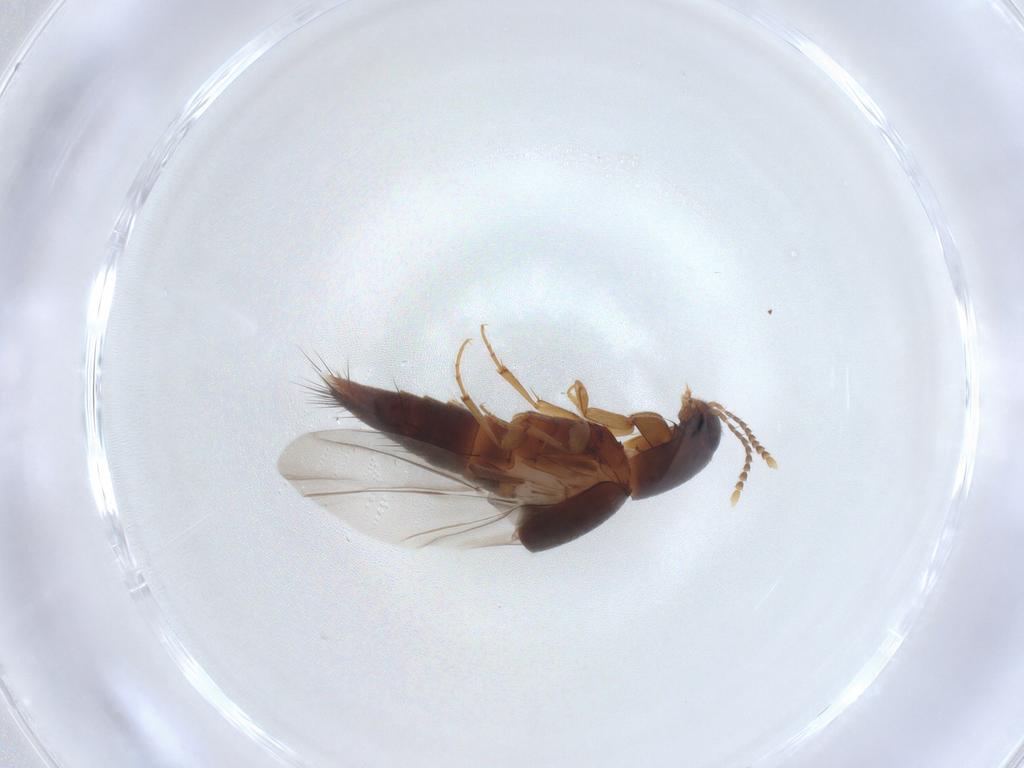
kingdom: Animalia
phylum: Arthropoda
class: Insecta
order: Coleoptera
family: Staphylinidae
